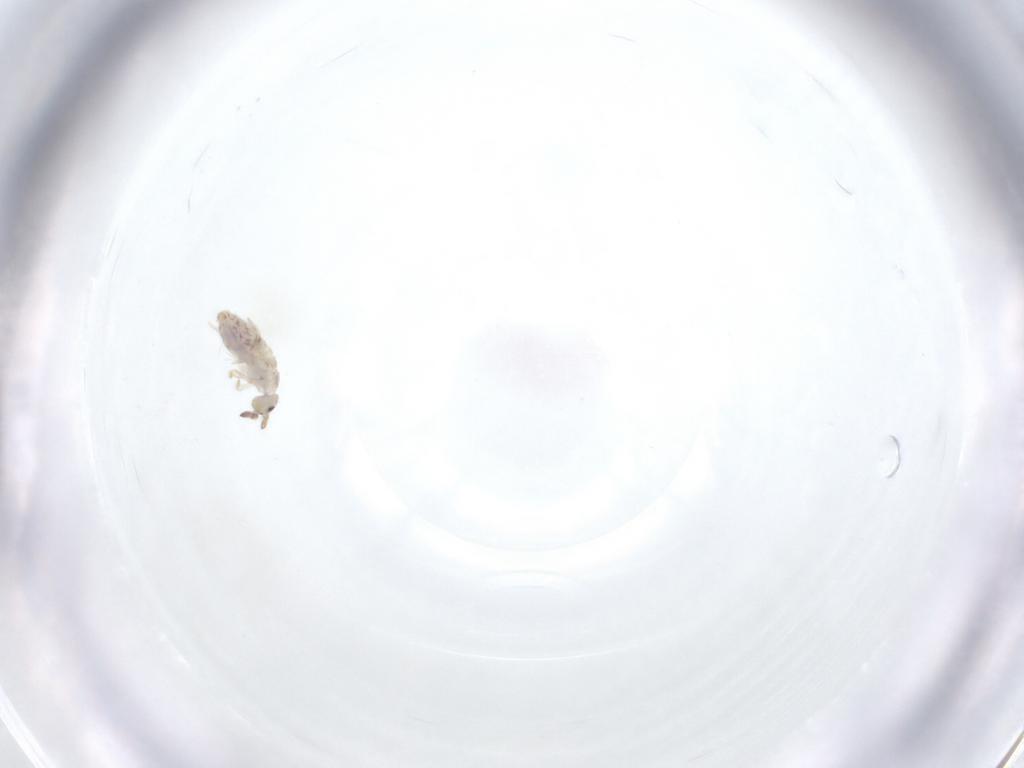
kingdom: Animalia
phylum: Arthropoda
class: Collembola
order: Entomobryomorpha
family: Entomobryidae
